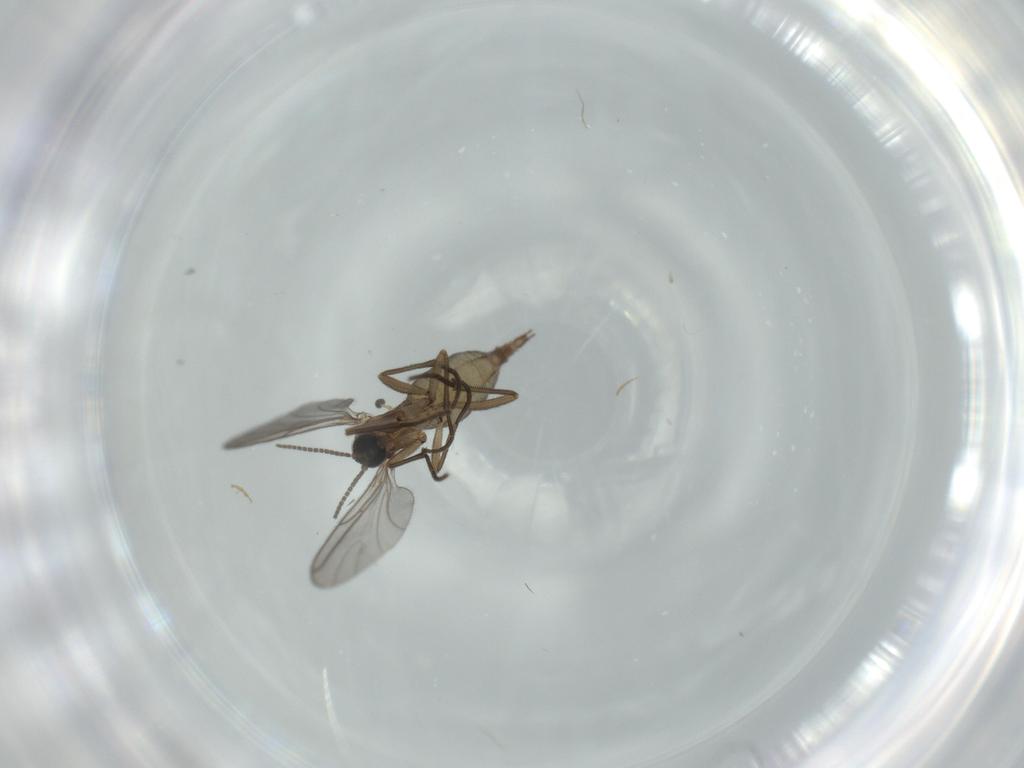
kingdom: Animalia
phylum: Arthropoda
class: Insecta
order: Diptera
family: Sciaridae
